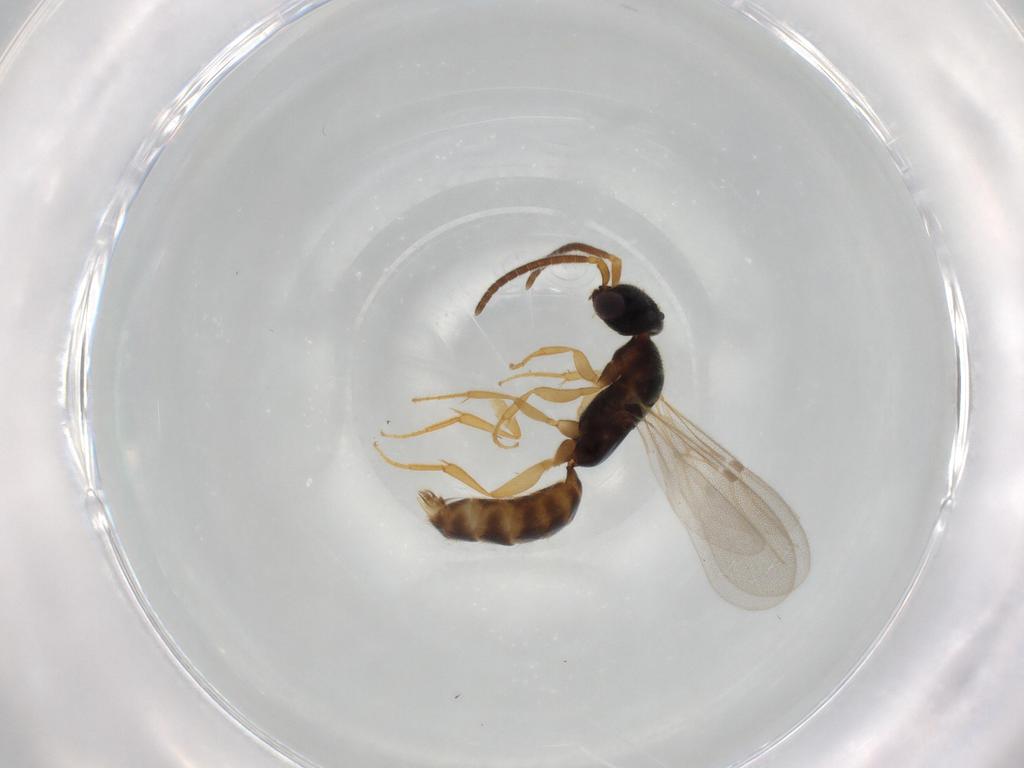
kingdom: Animalia
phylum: Arthropoda
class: Insecta
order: Hymenoptera
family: Bethylidae
